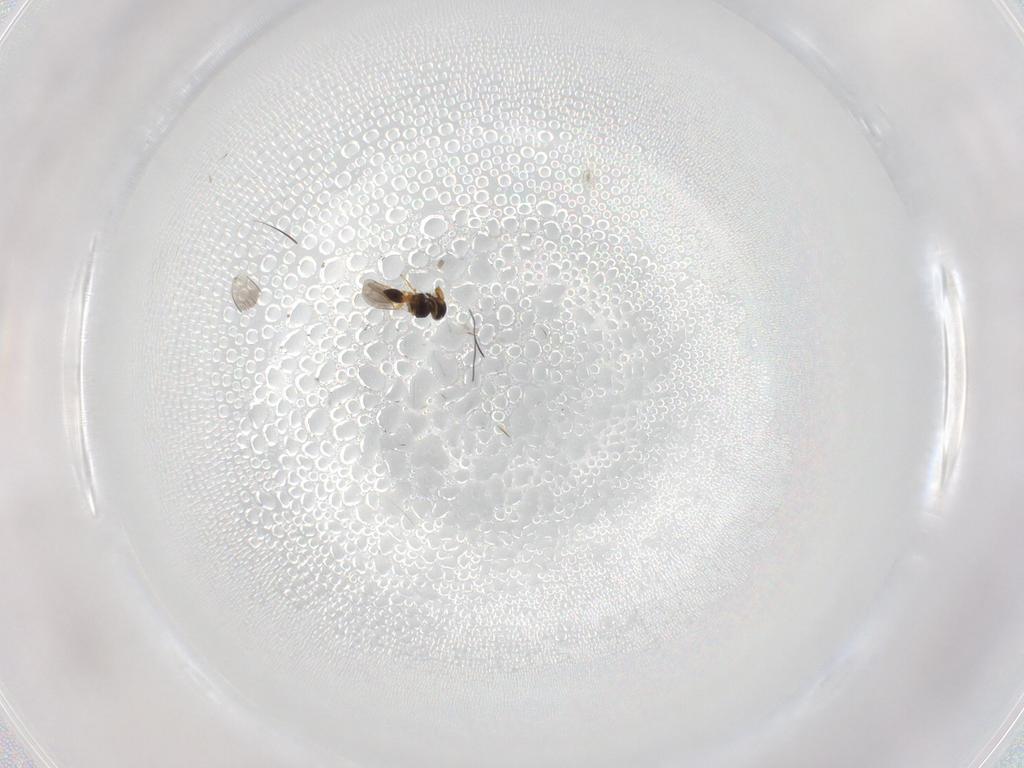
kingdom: Animalia
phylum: Arthropoda
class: Insecta
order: Hymenoptera
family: Platygastridae
